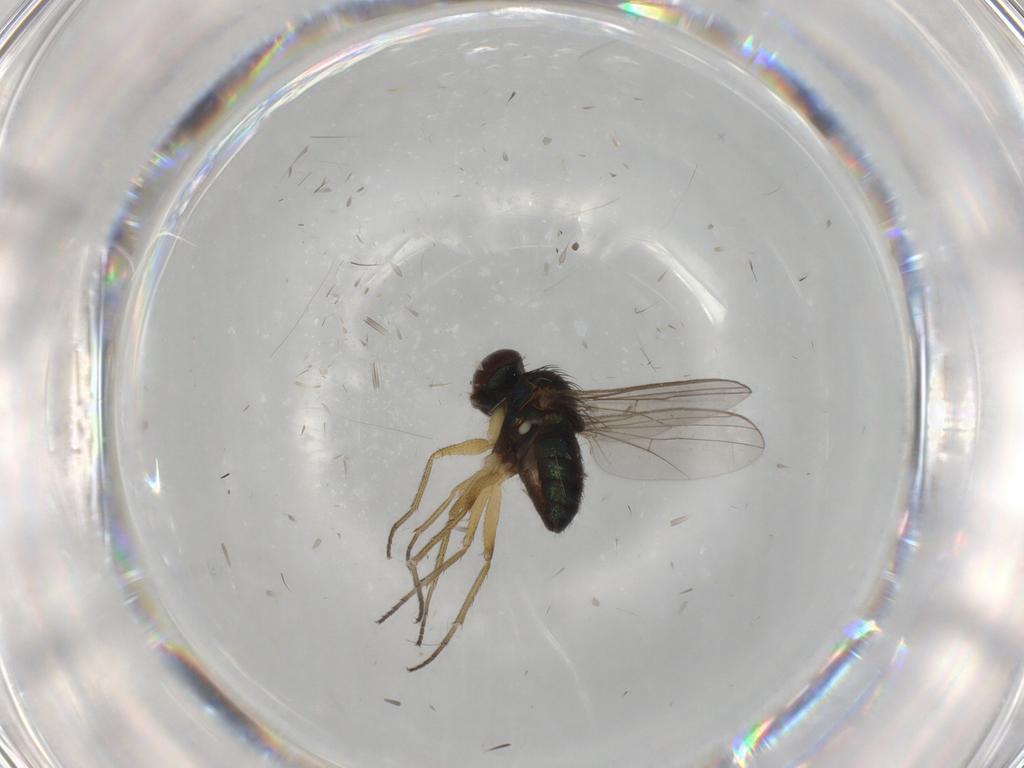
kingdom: Animalia
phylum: Arthropoda
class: Insecta
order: Diptera
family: Dolichopodidae
